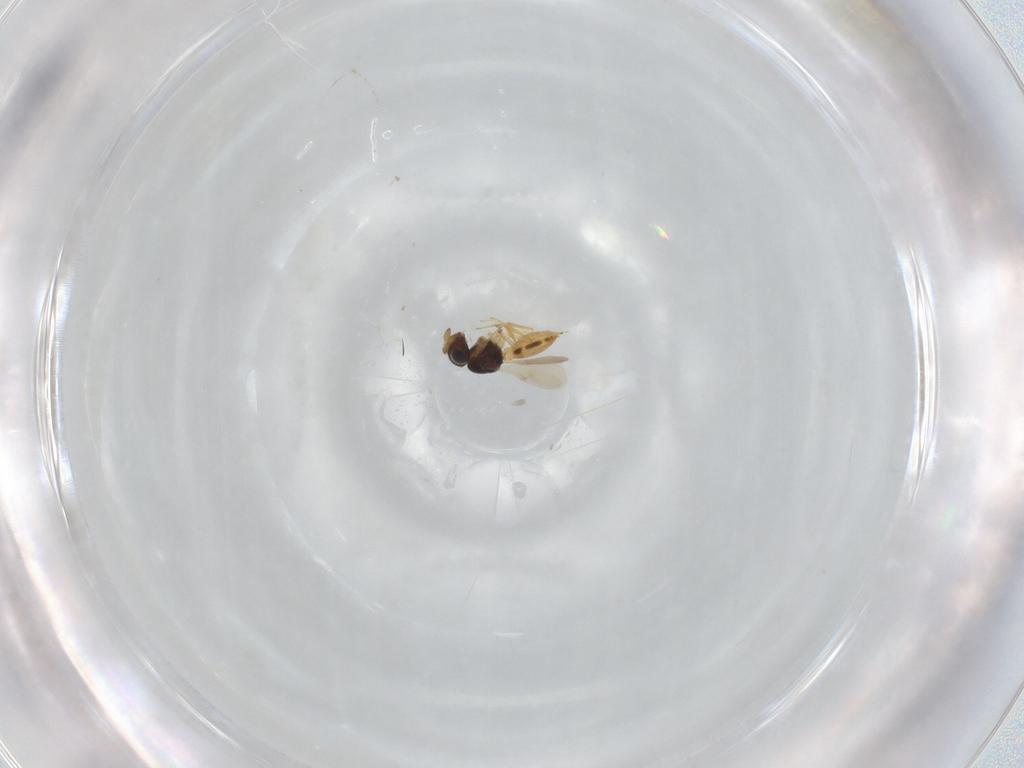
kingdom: Animalia
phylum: Arthropoda
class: Insecta
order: Hymenoptera
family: Scelionidae
